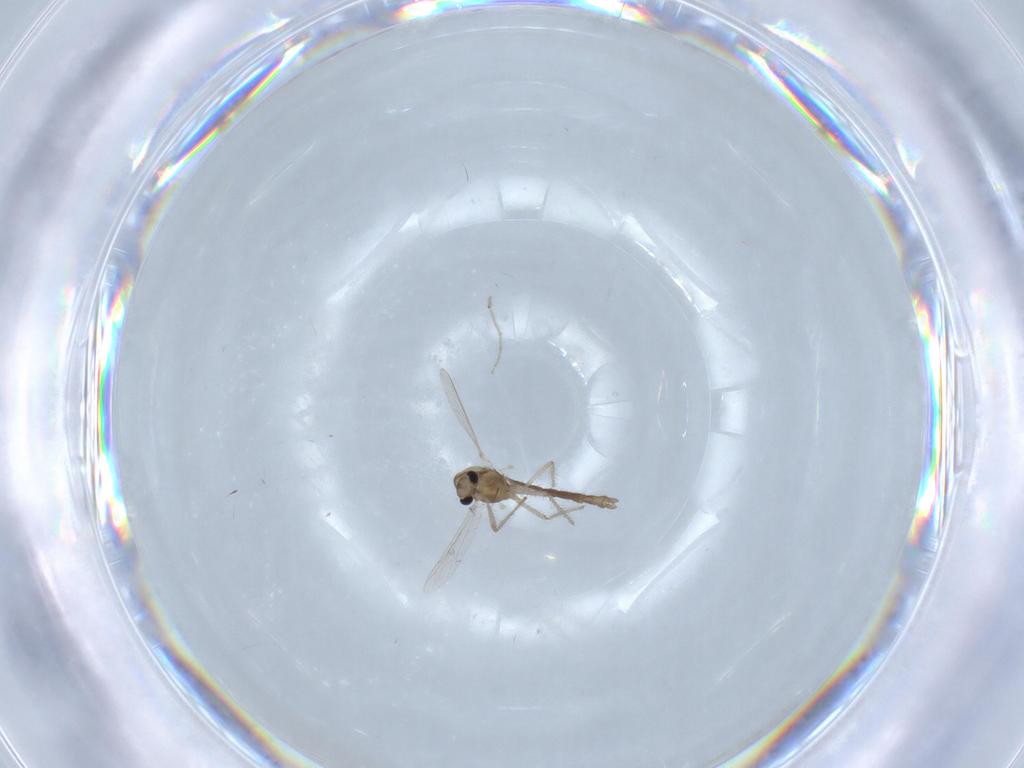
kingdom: Animalia
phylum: Arthropoda
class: Insecta
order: Diptera
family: Chironomidae
